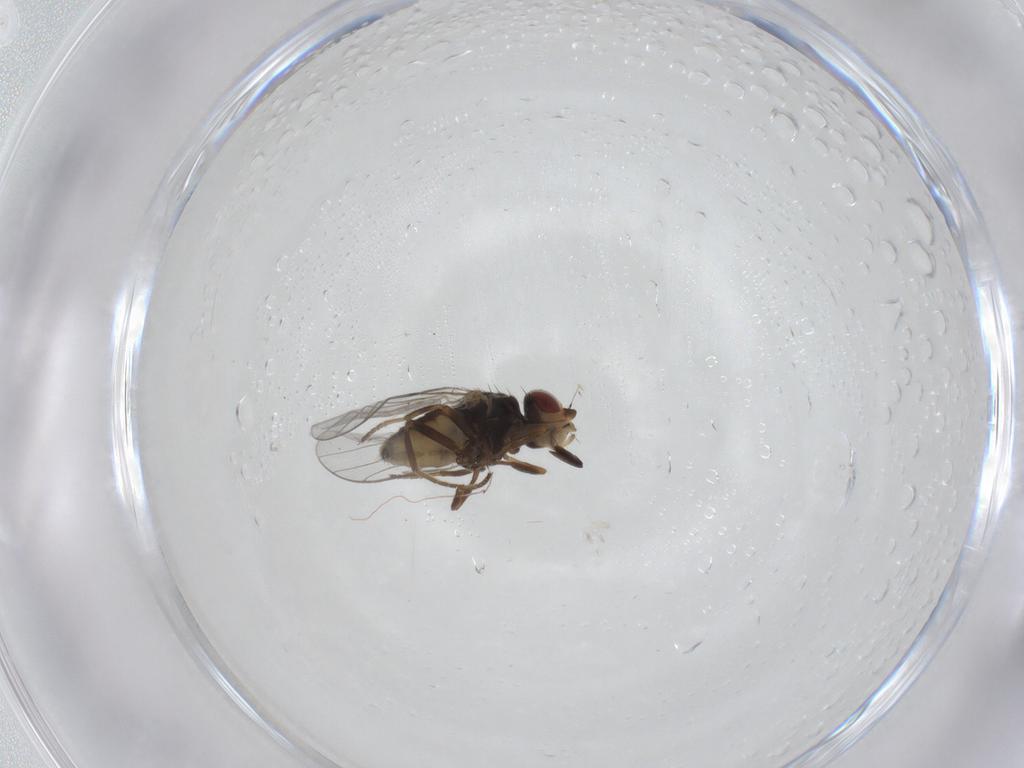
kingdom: Animalia
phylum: Arthropoda
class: Insecta
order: Diptera
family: Chloropidae
